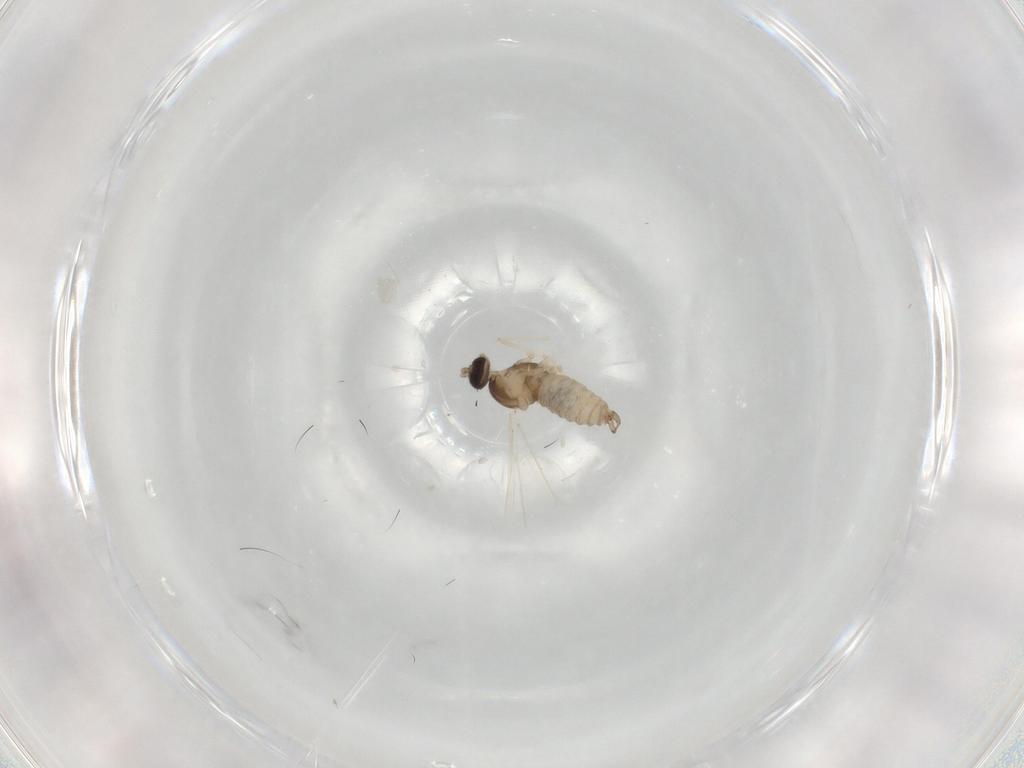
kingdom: Animalia
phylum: Arthropoda
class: Insecta
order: Diptera
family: Cecidomyiidae
